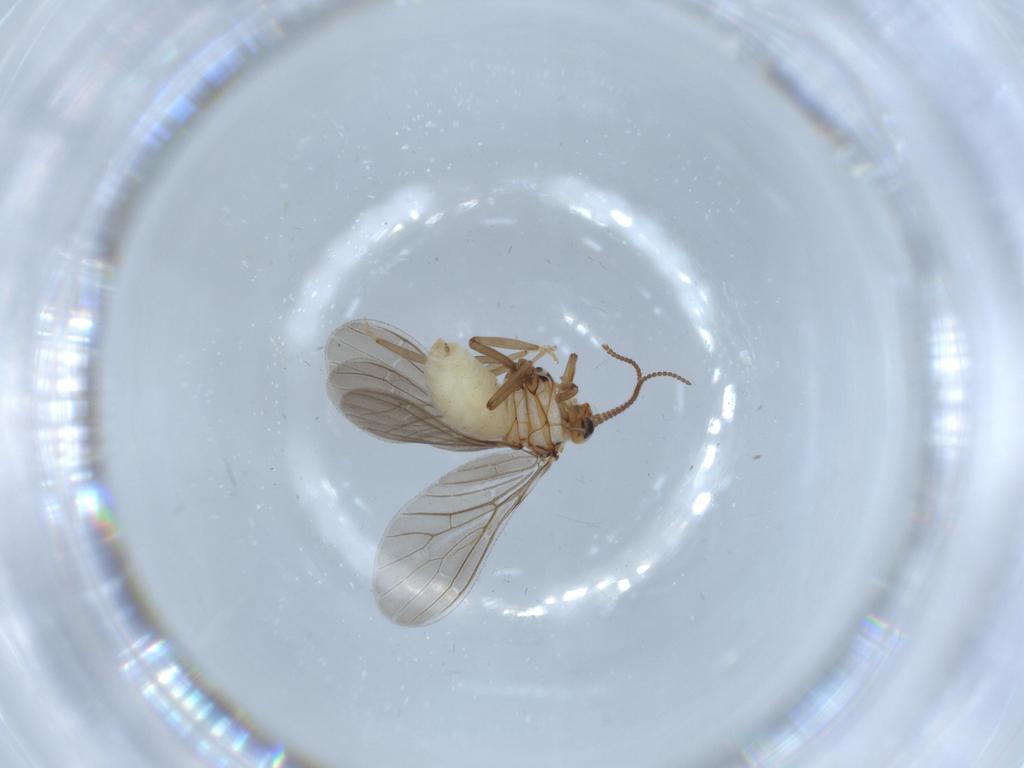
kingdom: Animalia
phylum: Arthropoda
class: Insecta
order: Neuroptera
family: Coniopterygidae
